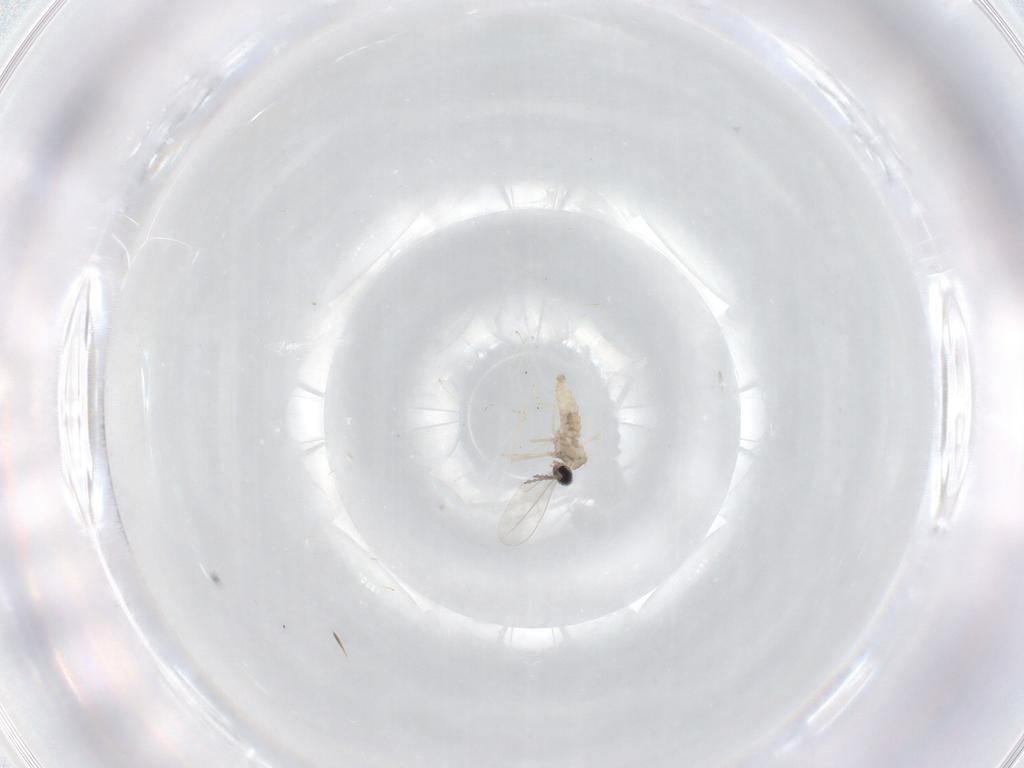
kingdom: Animalia
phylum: Arthropoda
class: Insecta
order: Diptera
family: Cecidomyiidae
